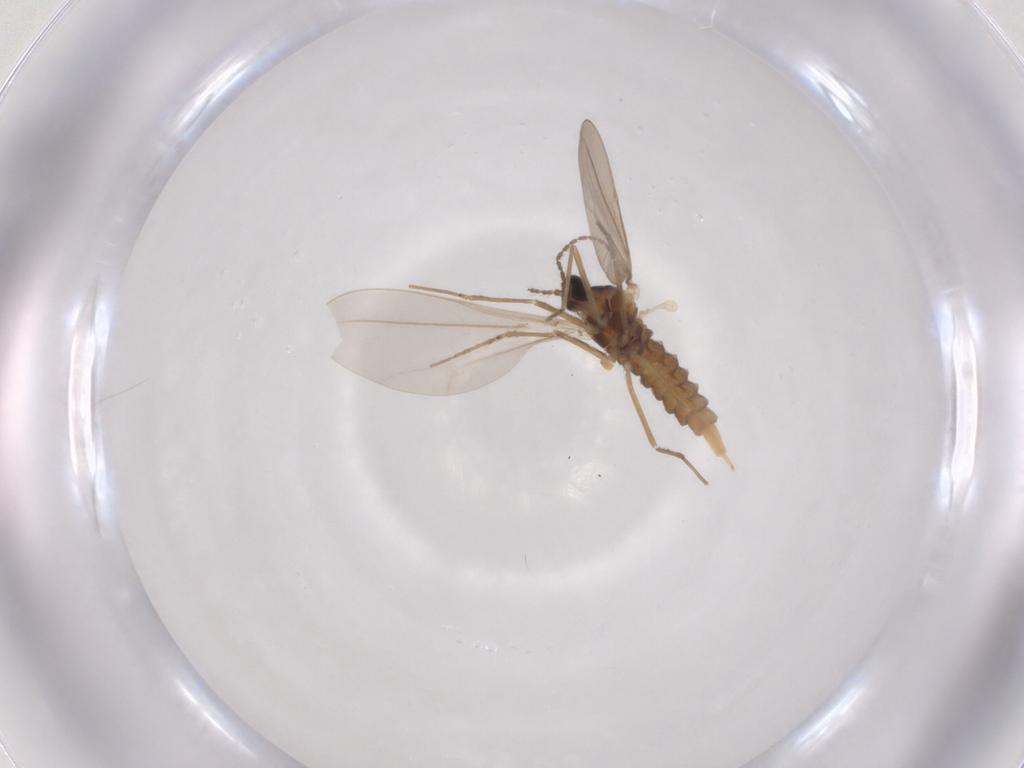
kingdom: Animalia
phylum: Arthropoda
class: Insecta
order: Diptera
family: Cecidomyiidae
